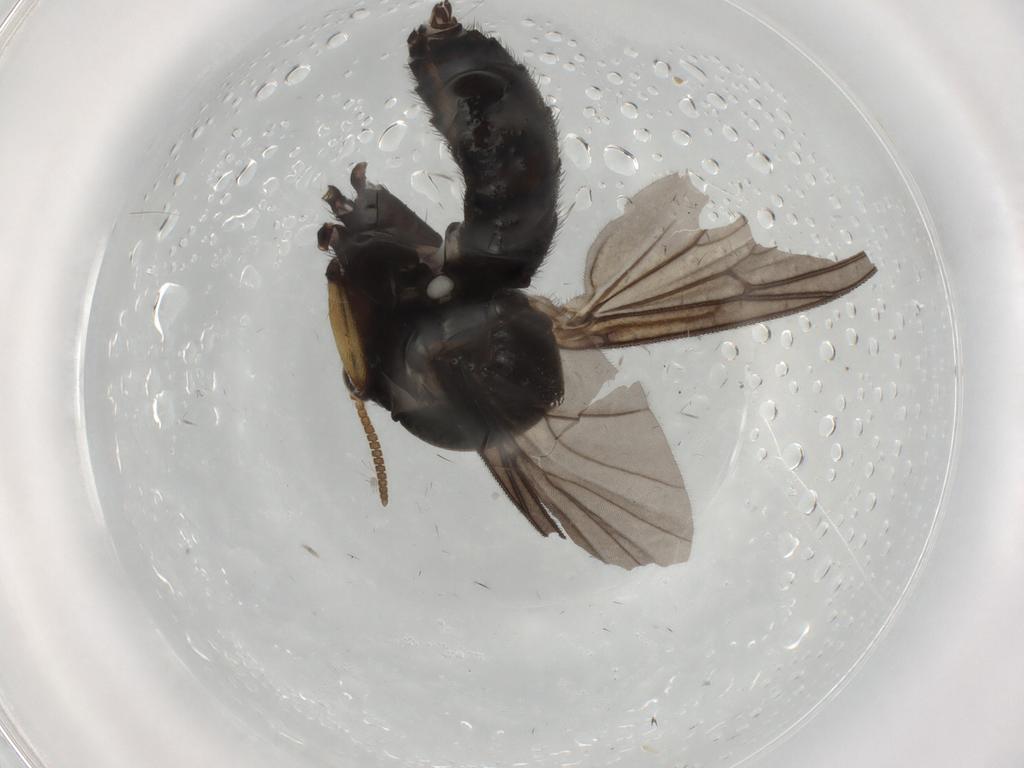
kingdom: Animalia
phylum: Arthropoda
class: Insecta
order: Diptera
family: Mycetophilidae
